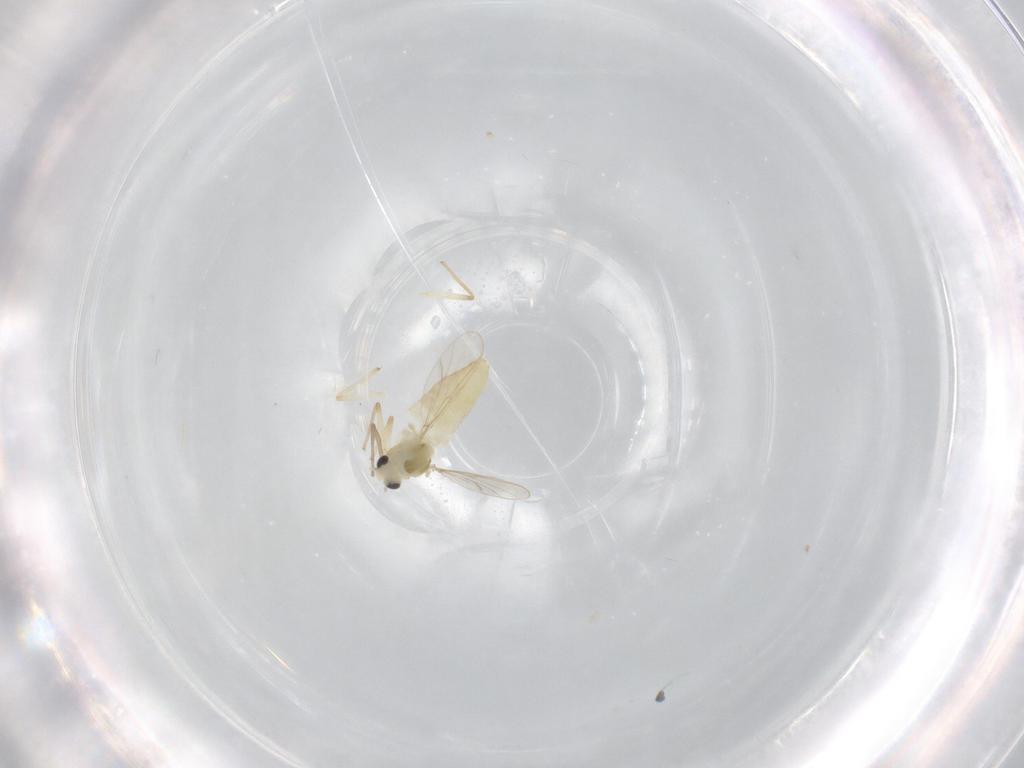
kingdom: Animalia
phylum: Arthropoda
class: Insecta
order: Diptera
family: Chironomidae
